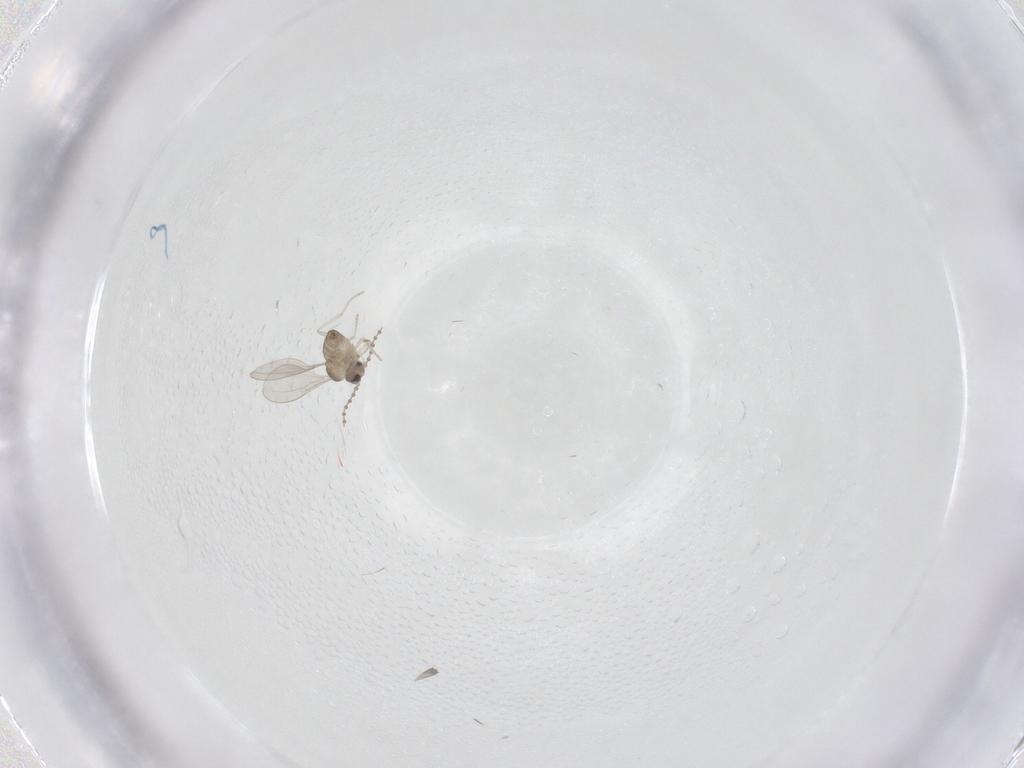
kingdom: Animalia
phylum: Arthropoda
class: Insecta
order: Diptera
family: Cecidomyiidae
